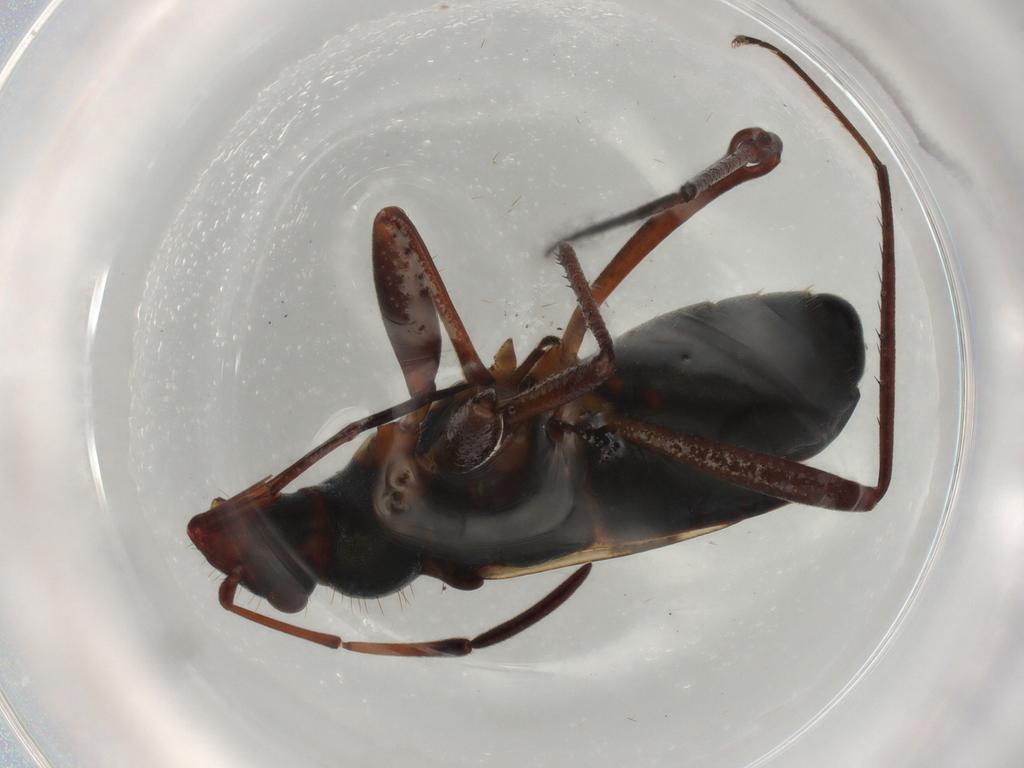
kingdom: Animalia
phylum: Arthropoda
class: Insecta
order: Hemiptera
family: Rhyparochromidae
